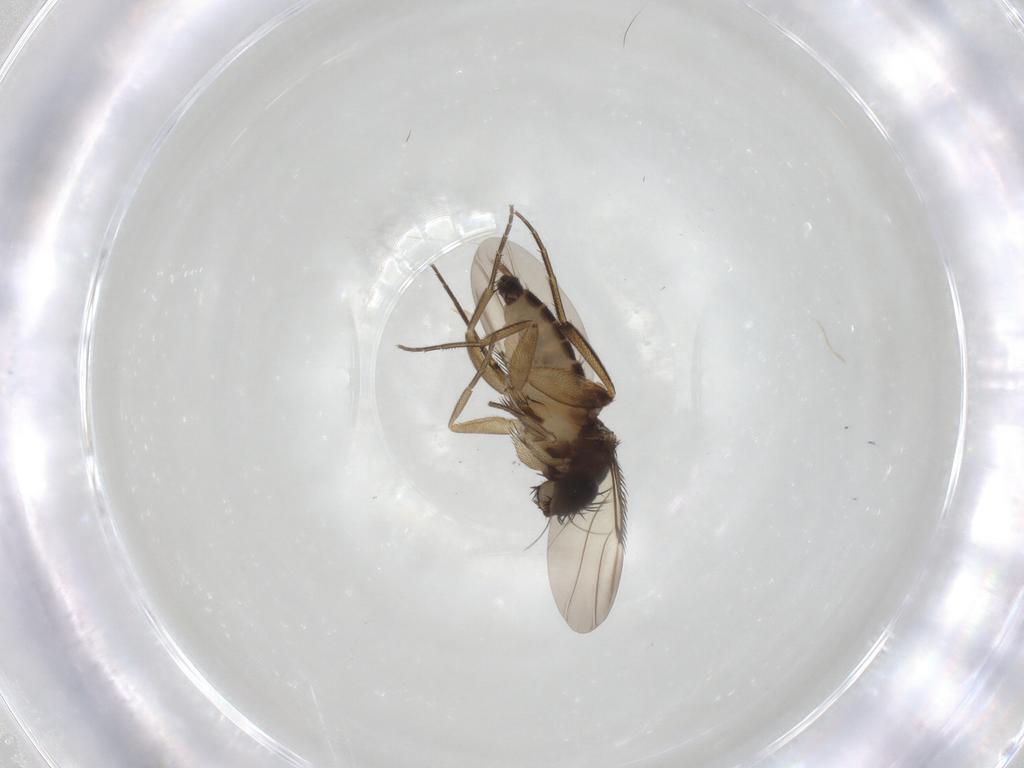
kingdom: Animalia
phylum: Arthropoda
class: Insecta
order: Diptera
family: Phoridae
